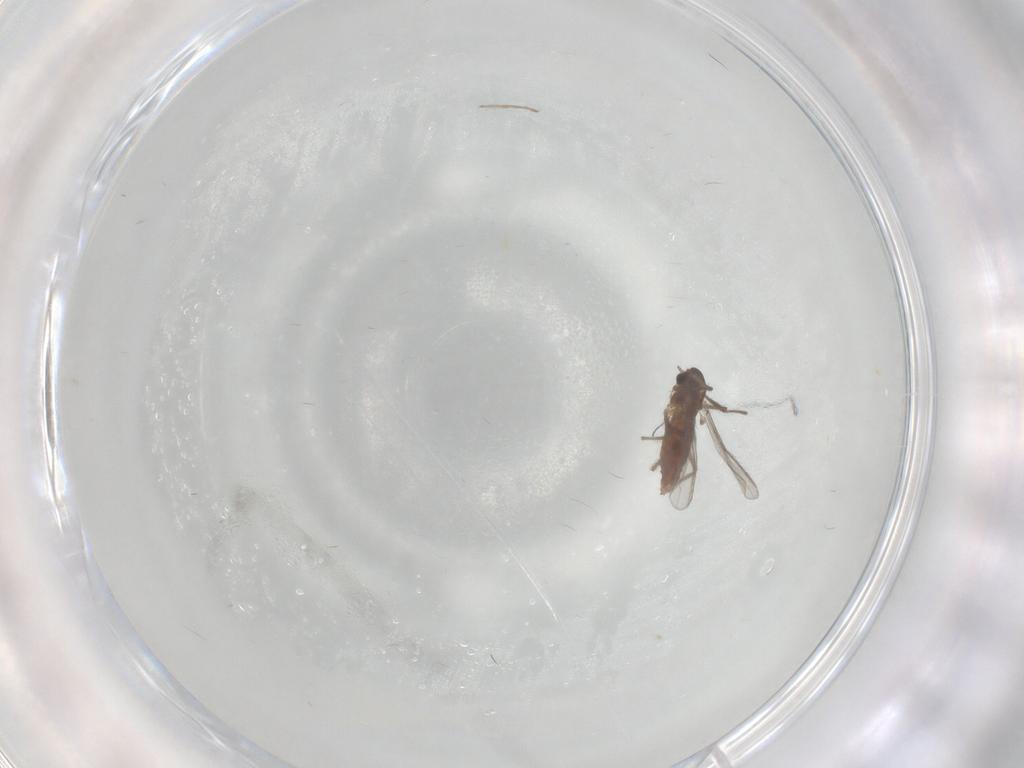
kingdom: Animalia
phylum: Arthropoda
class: Insecta
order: Diptera
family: Chironomidae
